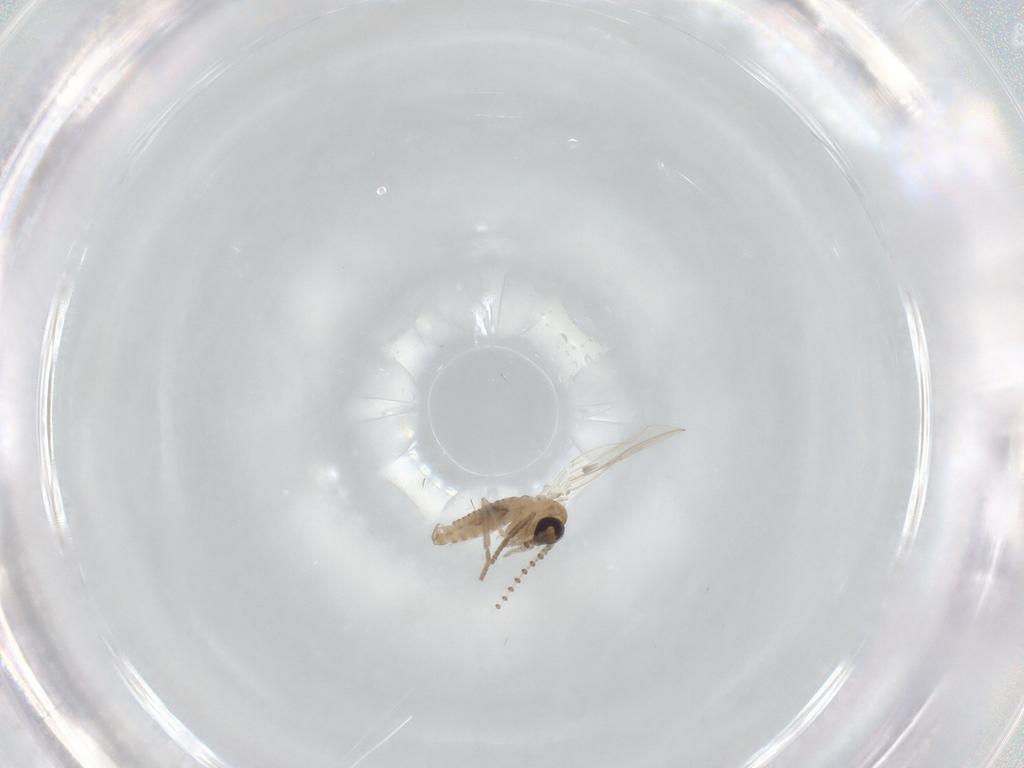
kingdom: Animalia
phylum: Arthropoda
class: Insecta
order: Diptera
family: Psychodidae
